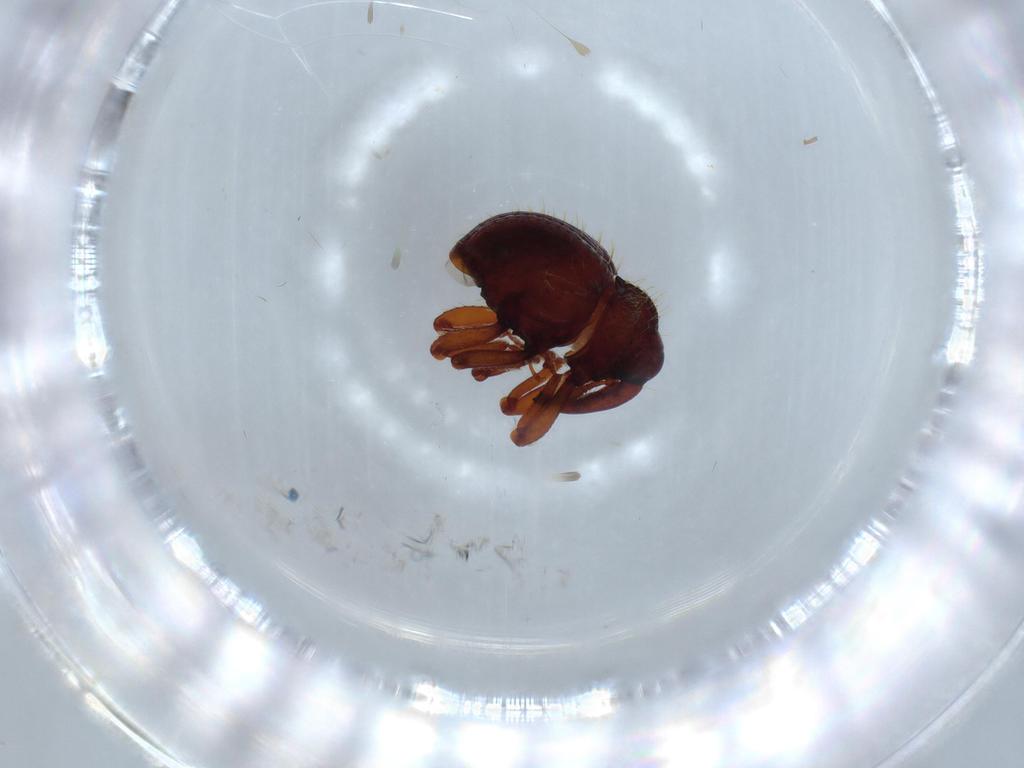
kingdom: Animalia
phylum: Arthropoda
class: Insecta
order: Coleoptera
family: Curculionidae
